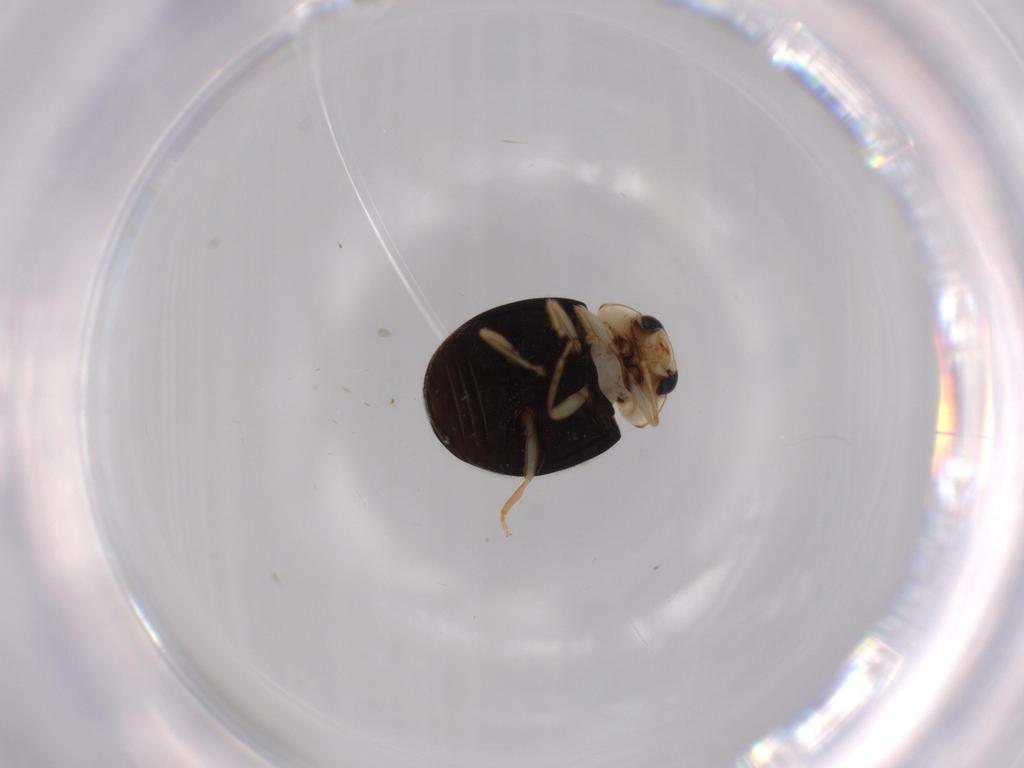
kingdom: Animalia
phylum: Arthropoda
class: Insecta
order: Coleoptera
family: Coccinellidae
